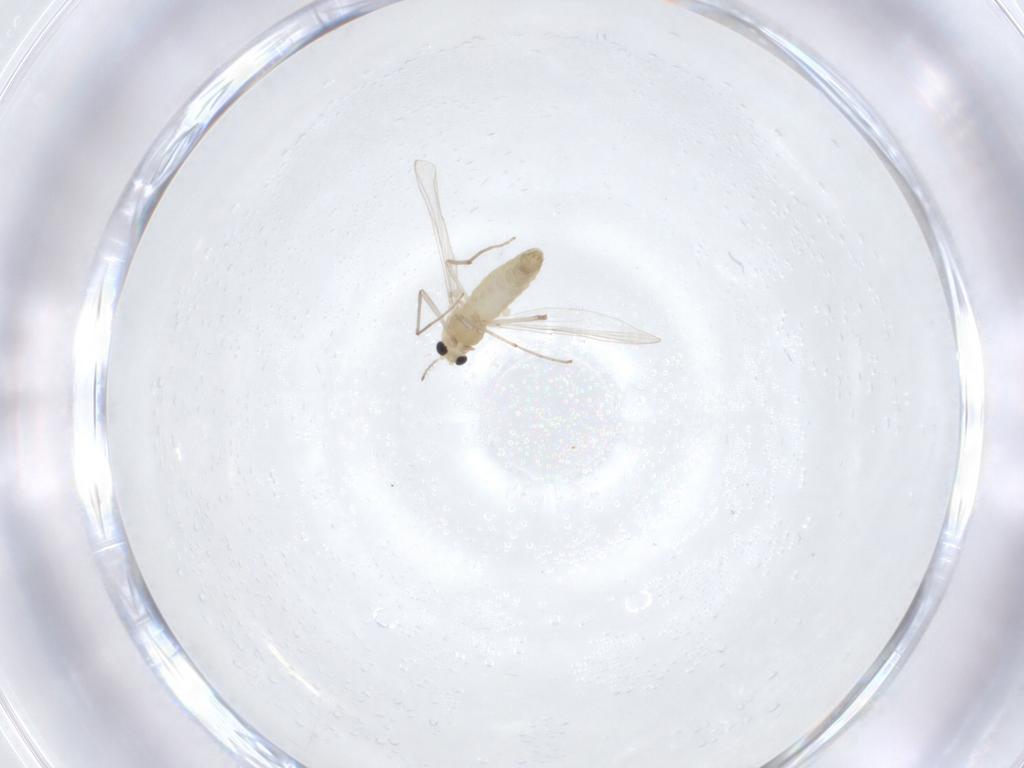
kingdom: Animalia
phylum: Arthropoda
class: Insecta
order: Diptera
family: Chironomidae
